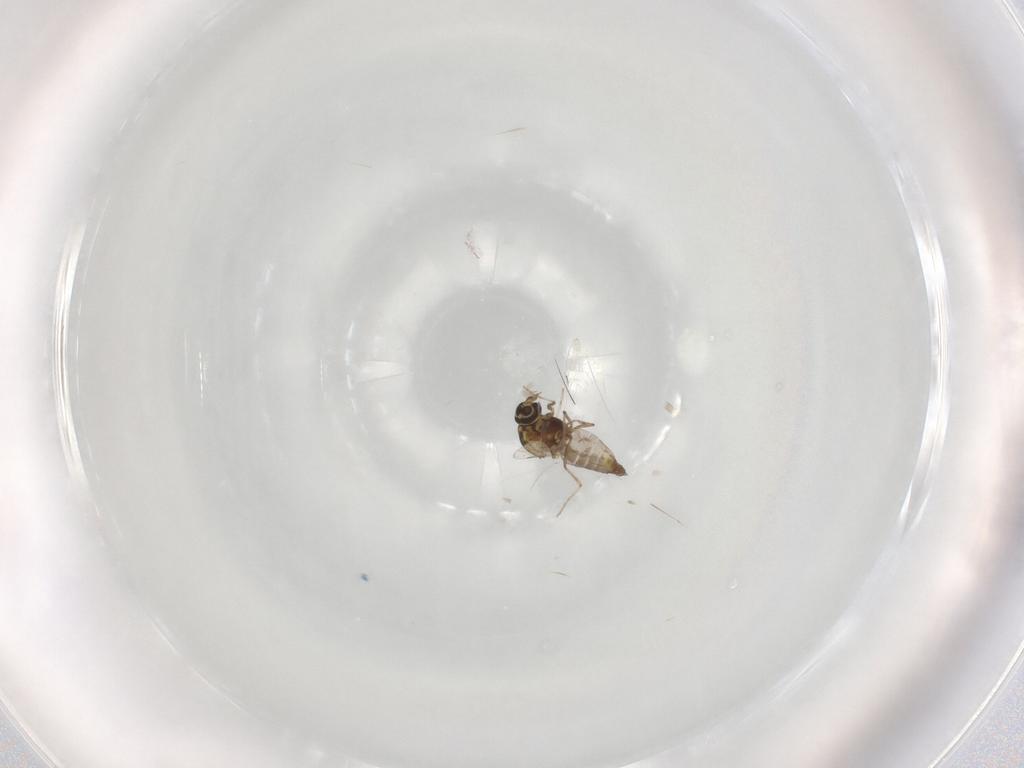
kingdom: Animalia
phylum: Arthropoda
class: Insecta
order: Diptera
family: Ceratopogonidae
